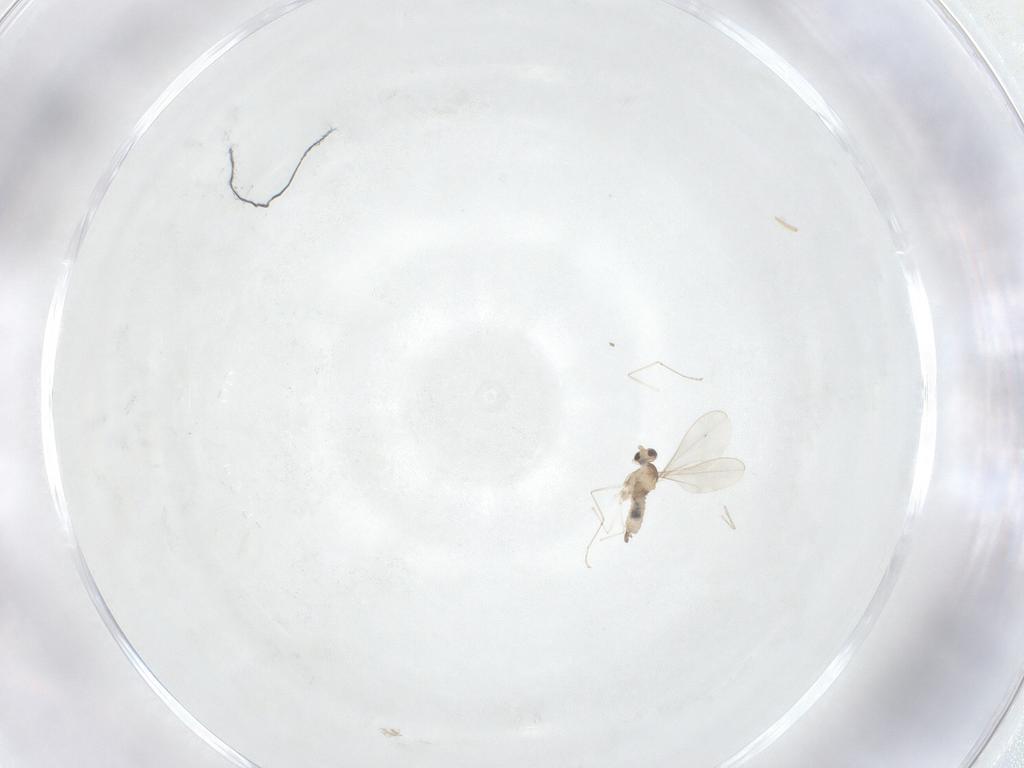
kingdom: Animalia
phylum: Arthropoda
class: Insecta
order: Diptera
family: Cecidomyiidae
